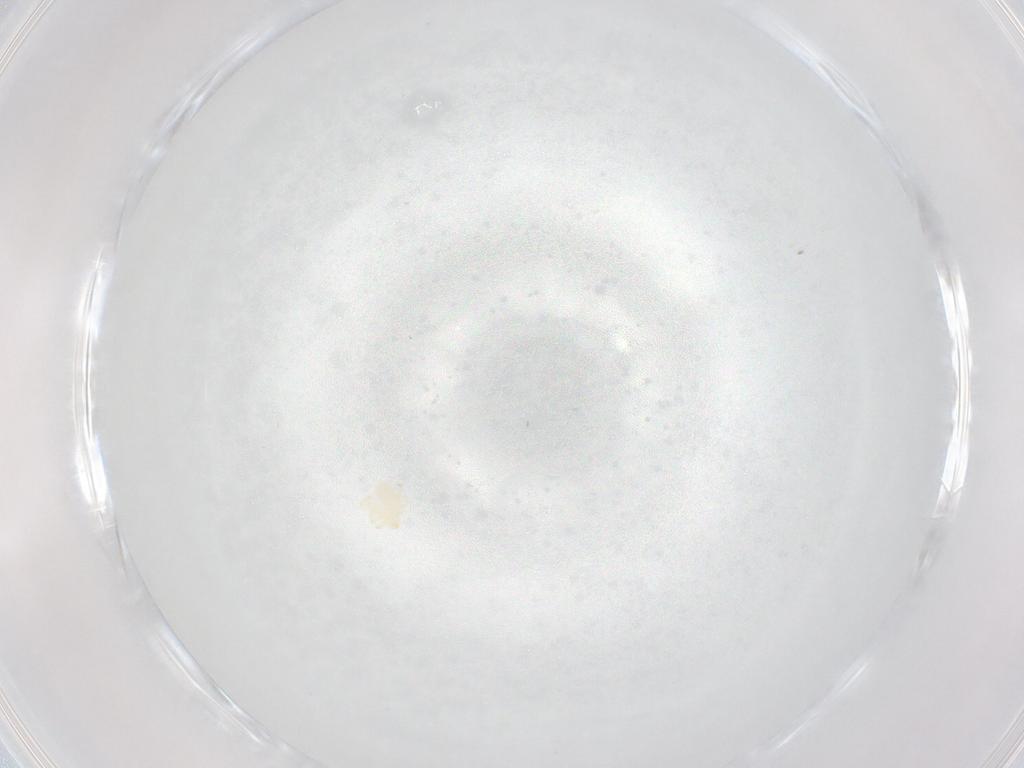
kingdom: Animalia
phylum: Arthropoda
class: Arachnida
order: Trombidiformes
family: Microtrombidiidae
